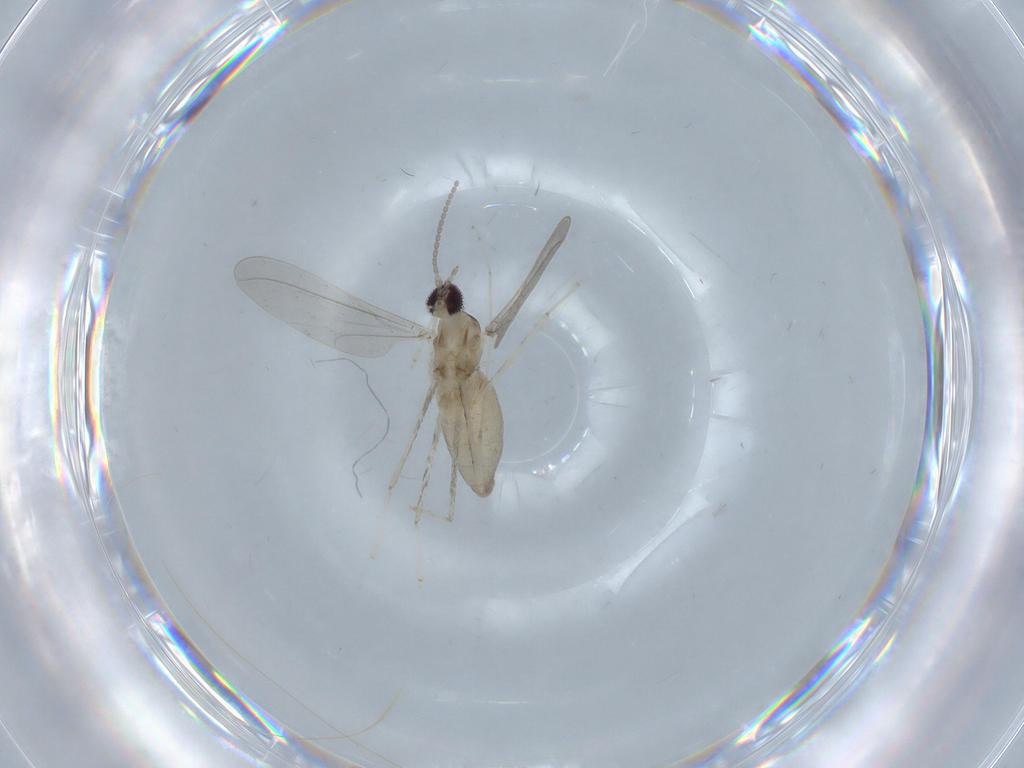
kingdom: Animalia
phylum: Arthropoda
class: Insecta
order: Diptera
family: Cecidomyiidae
